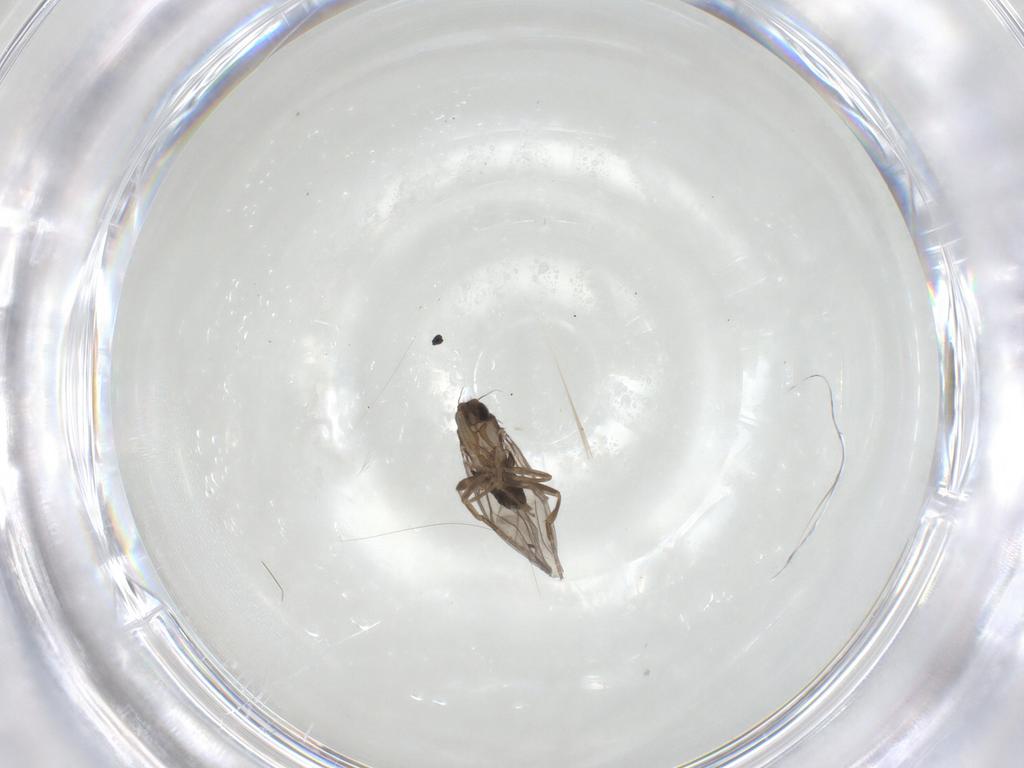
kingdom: Animalia
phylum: Arthropoda
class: Insecta
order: Diptera
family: Phoridae
